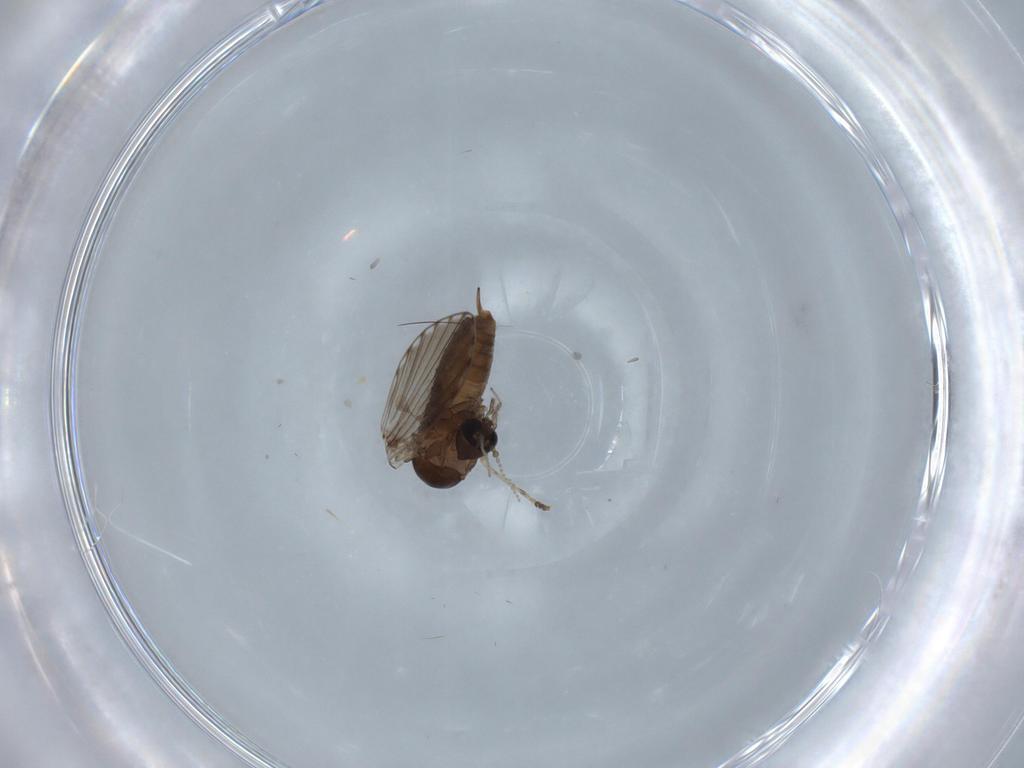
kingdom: Animalia
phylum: Arthropoda
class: Insecta
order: Diptera
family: Psychodidae
